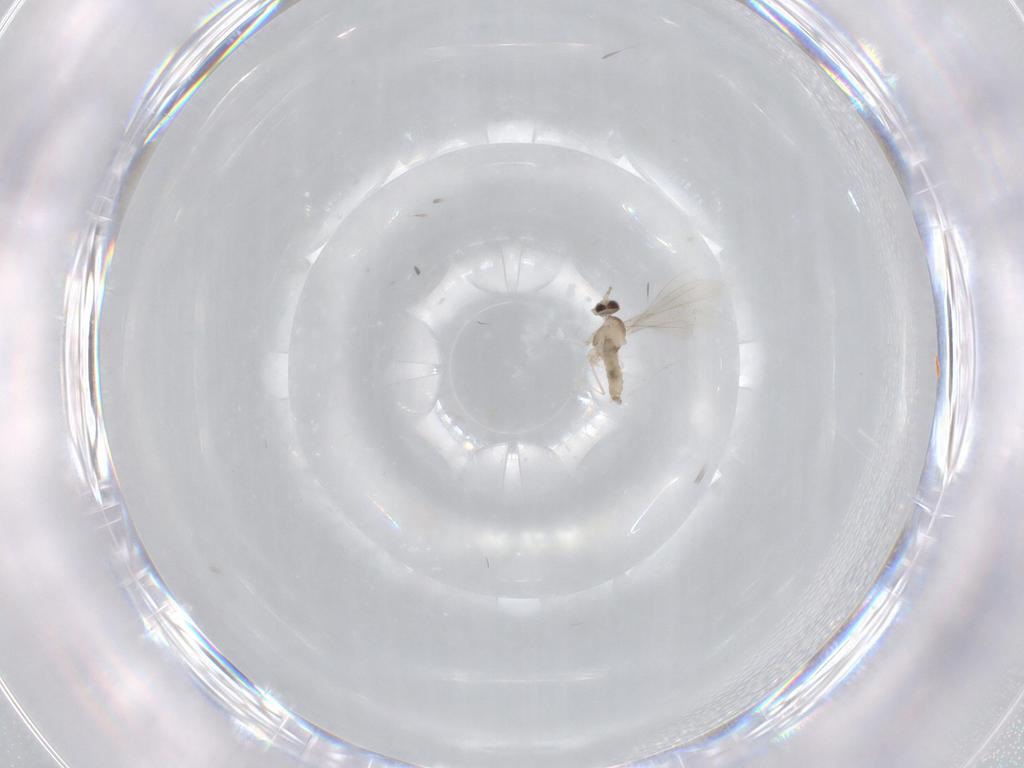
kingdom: Animalia
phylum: Arthropoda
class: Insecta
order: Diptera
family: Cecidomyiidae
